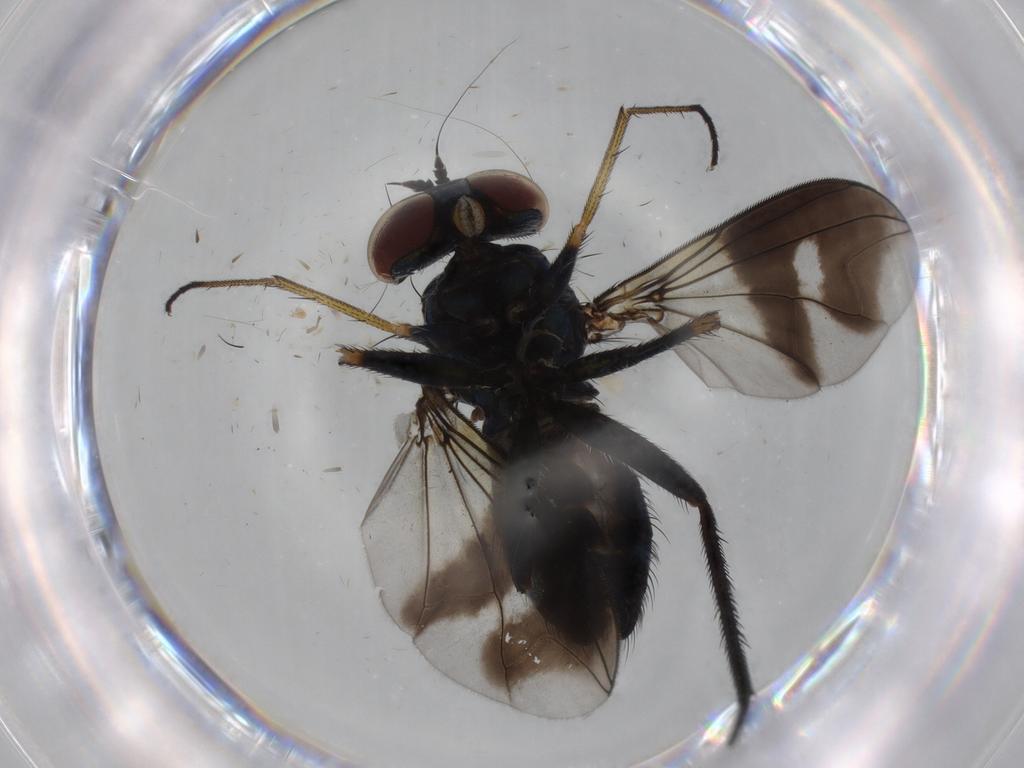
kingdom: Animalia
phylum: Arthropoda
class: Insecta
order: Diptera
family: Dolichopodidae
